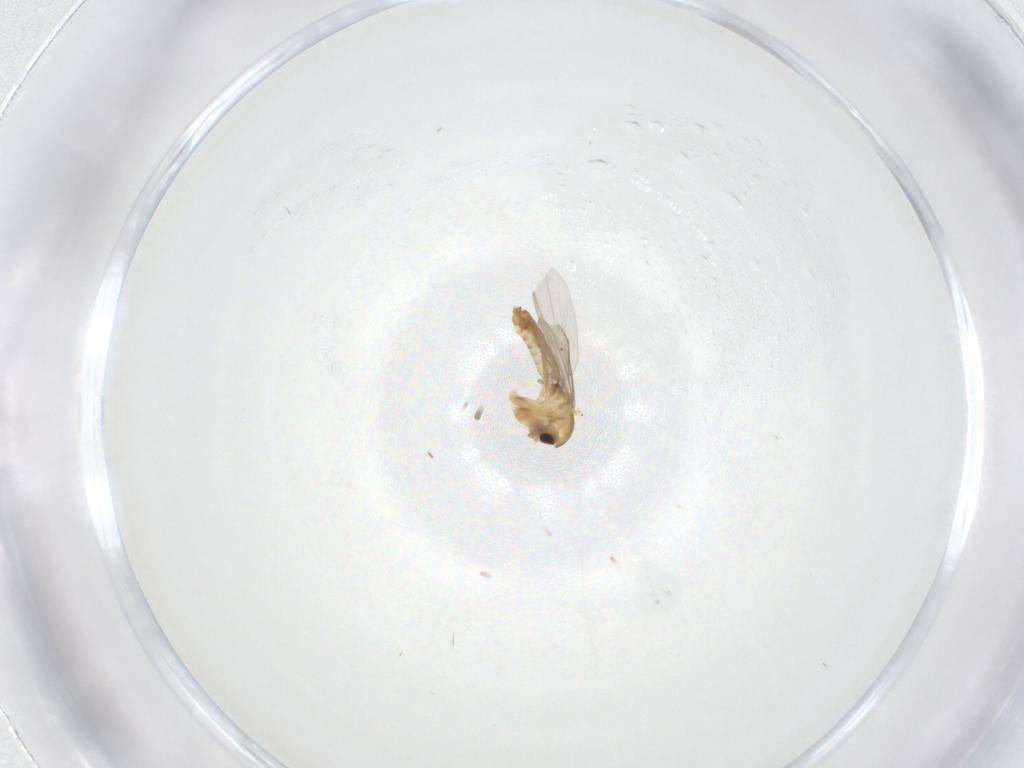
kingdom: Animalia
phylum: Arthropoda
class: Insecta
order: Diptera
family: Chironomidae
